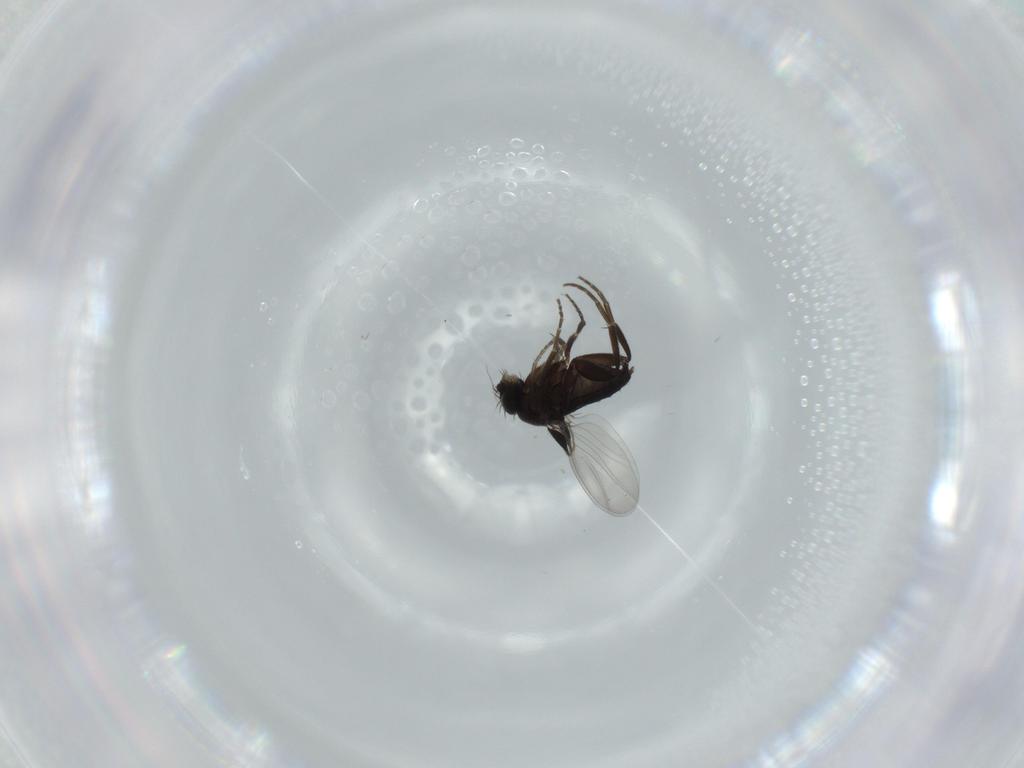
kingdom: Animalia
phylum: Arthropoda
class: Insecta
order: Diptera
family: Phoridae
